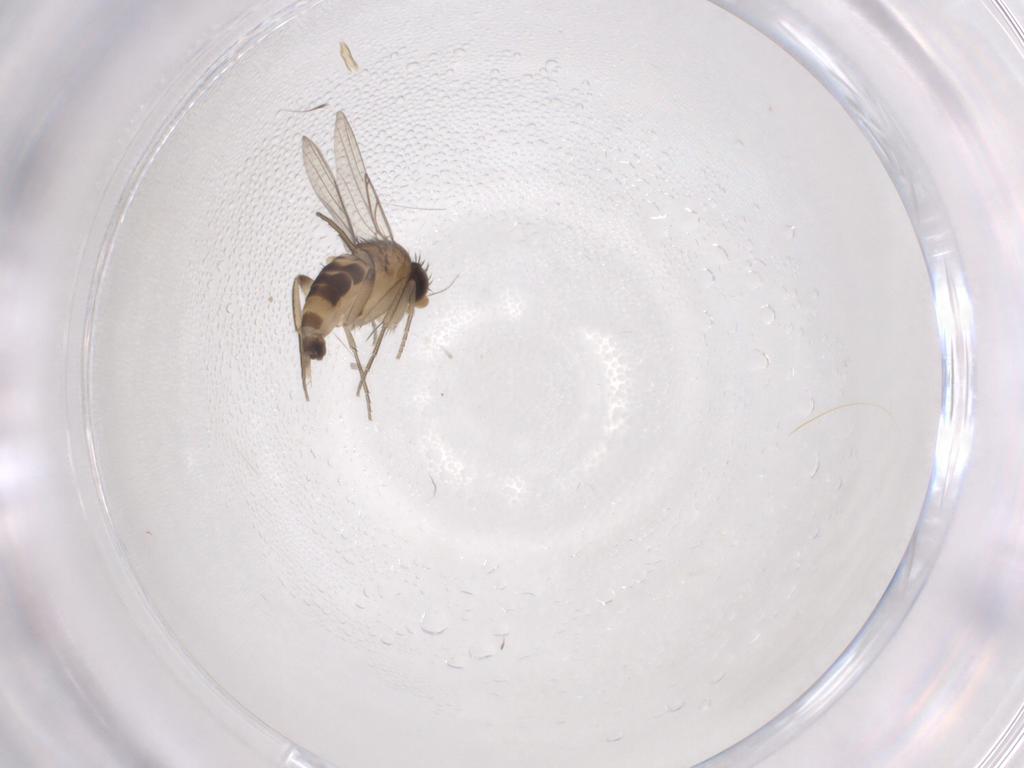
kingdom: Animalia
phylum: Arthropoda
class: Insecta
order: Diptera
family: Phoridae
